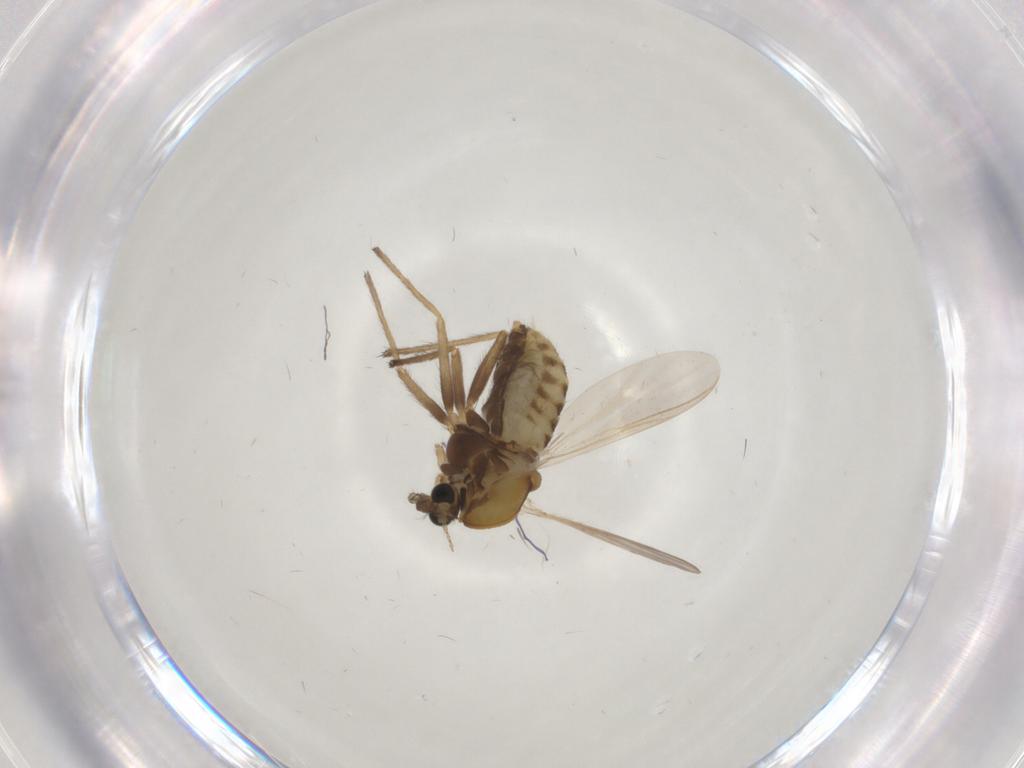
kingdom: Animalia
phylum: Arthropoda
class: Insecta
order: Diptera
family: Chironomidae
